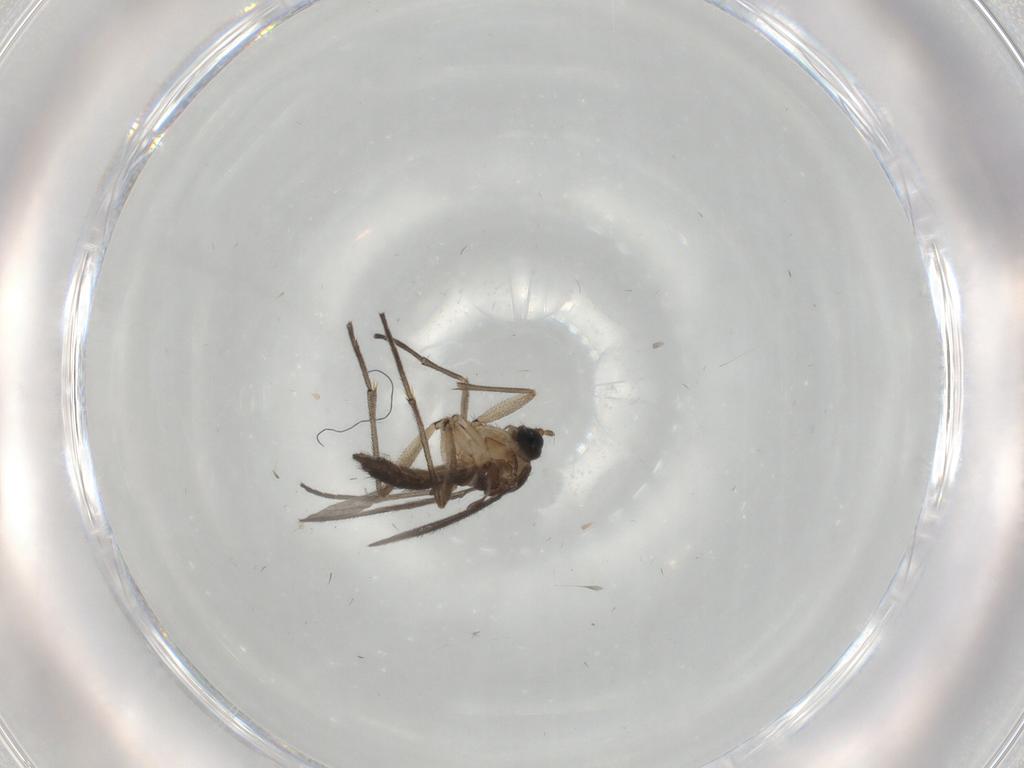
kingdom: Animalia
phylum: Arthropoda
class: Insecta
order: Diptera
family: Sciaridae
